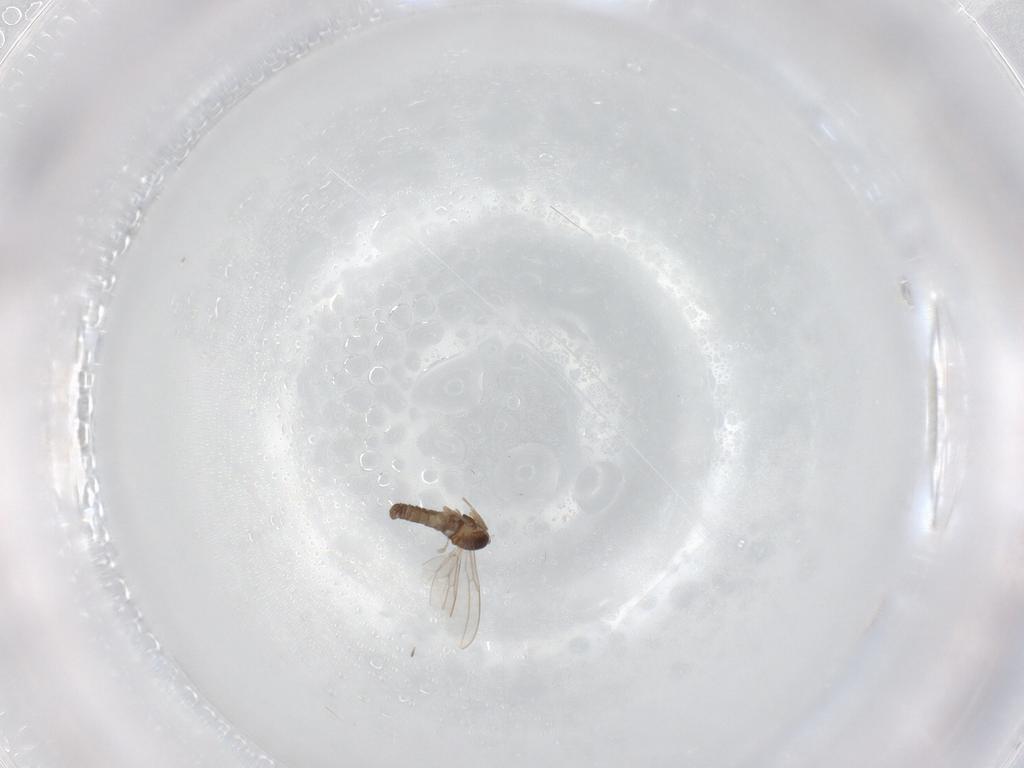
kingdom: Animalia
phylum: Arthropoda
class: Insecta
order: Diptera
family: Cecidomyiidae
